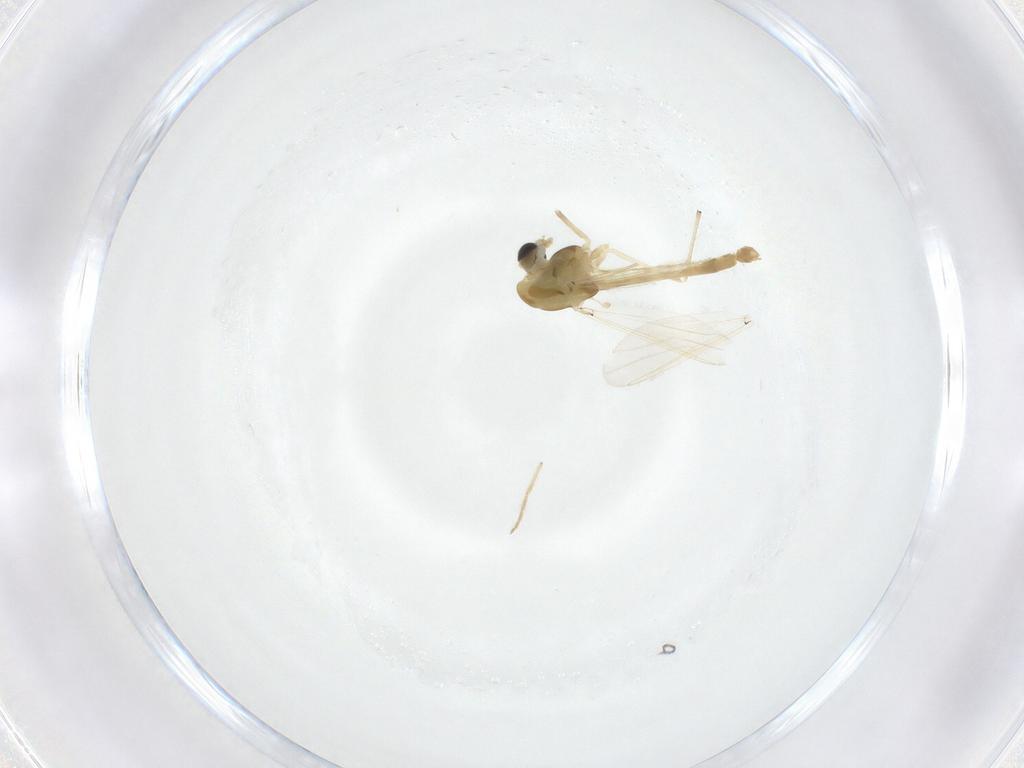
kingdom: Animalia
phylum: Arthropoda
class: Insecta
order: Diptera
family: Chironomidae
